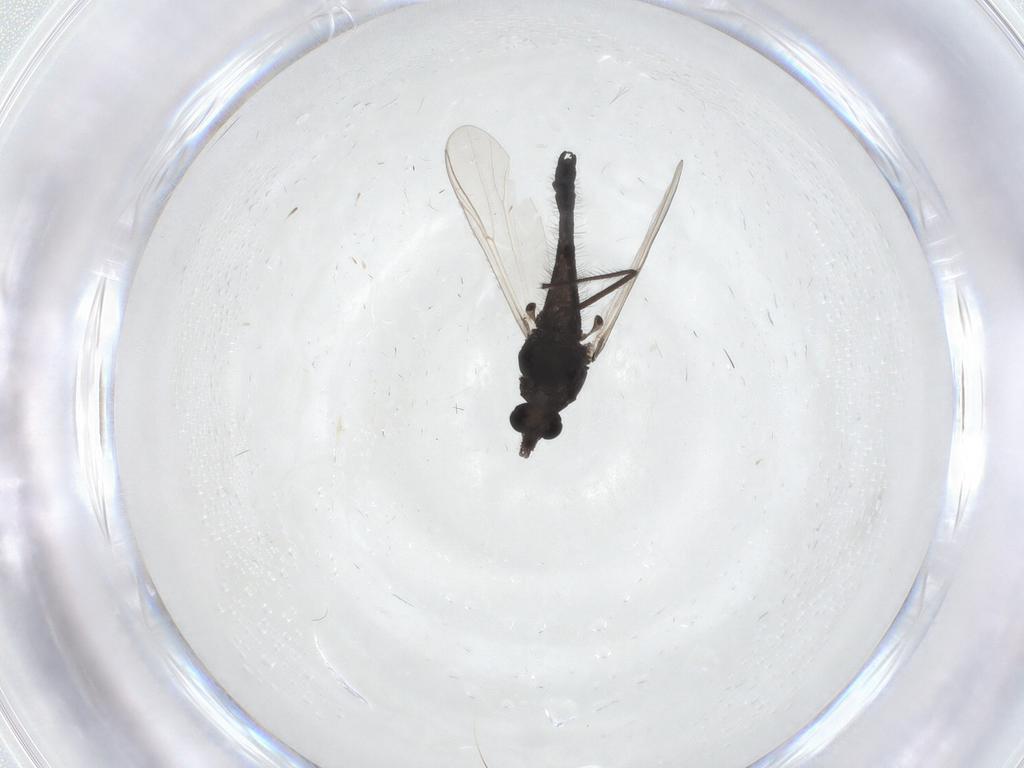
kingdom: Animalia
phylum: Arthropoda
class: Insecta
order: Diptera
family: Chironomidae
